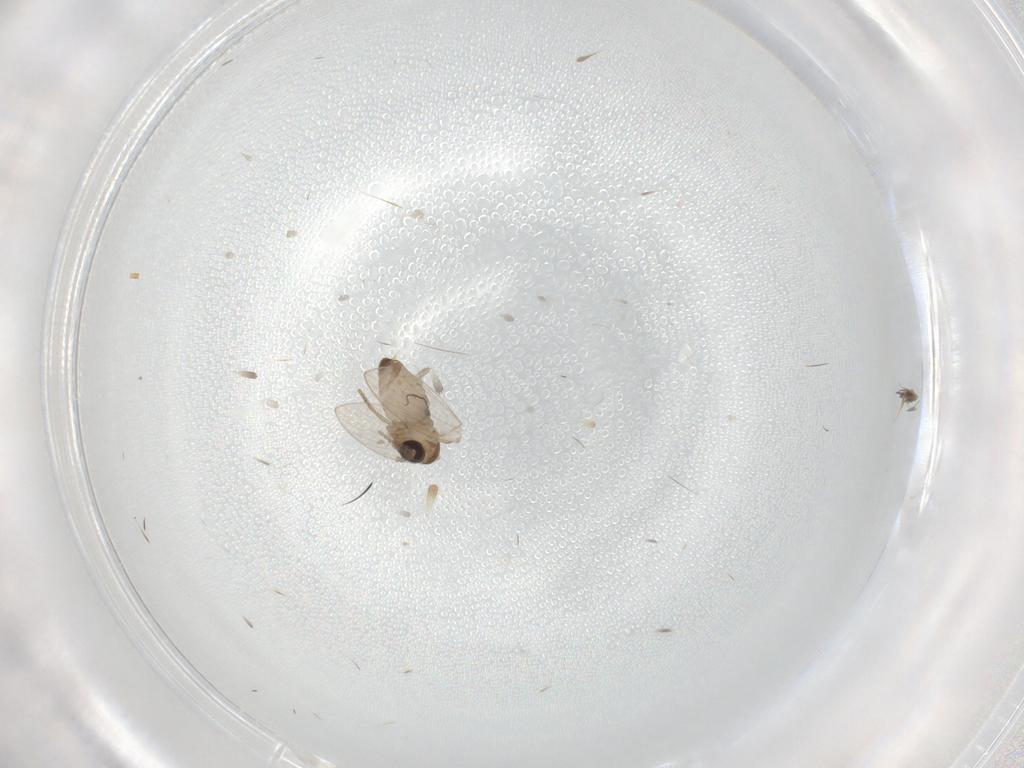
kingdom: Animalia
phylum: Arthropoda
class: Insecta
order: Diptera
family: Psychodidae
